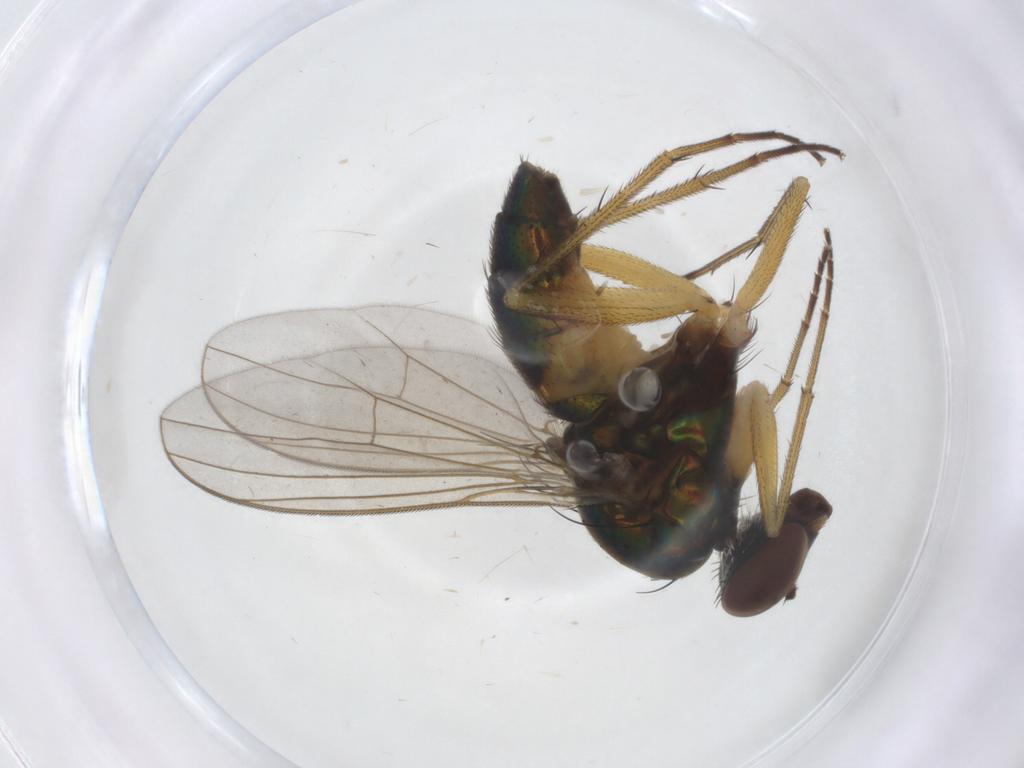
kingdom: Animalia
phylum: Arthropoda
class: Insecta
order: Diptera
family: Dolichopodidae
